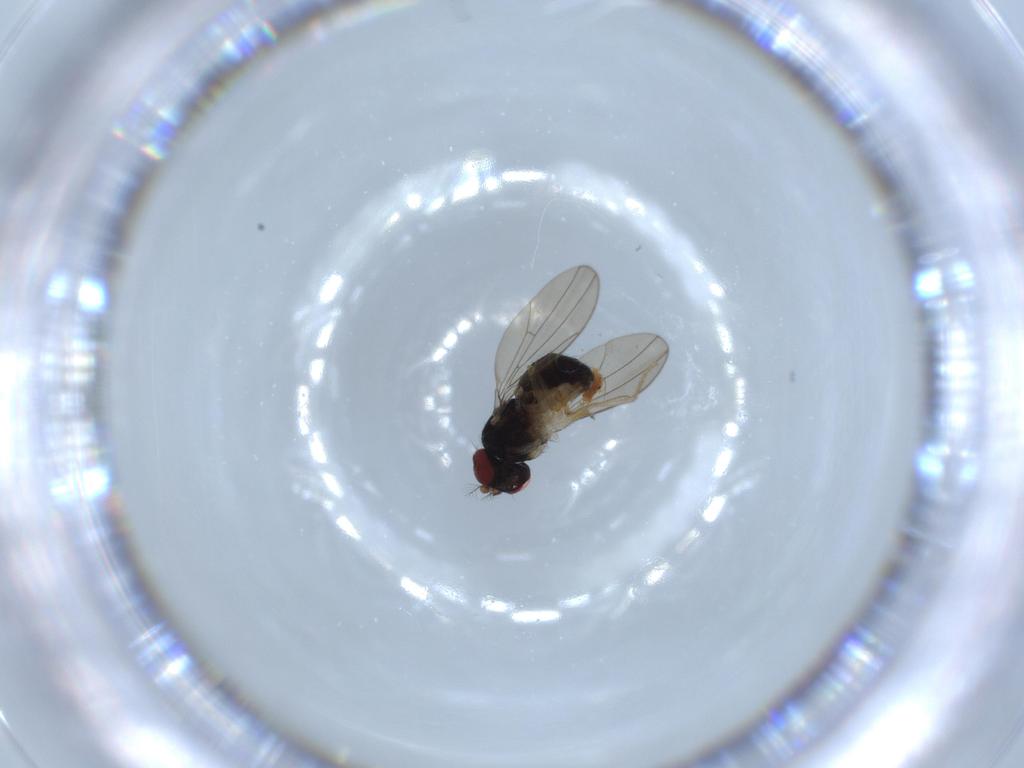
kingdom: Animalia
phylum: Arthropoda
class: Insecta
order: Diptera
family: Drosophilidae
